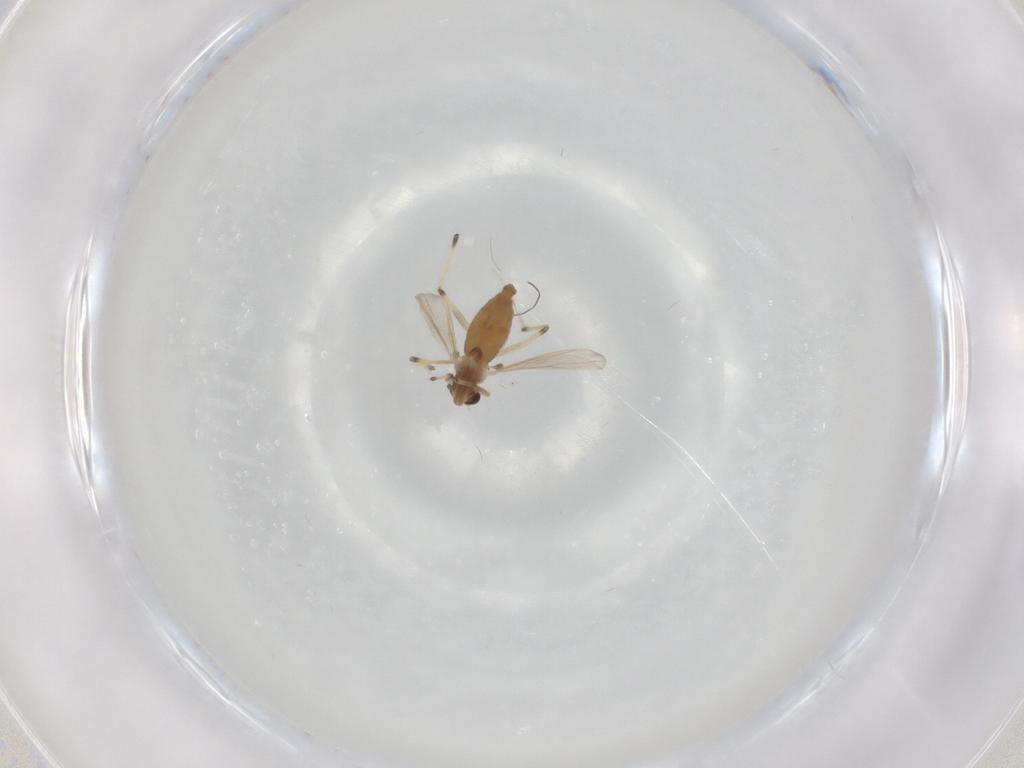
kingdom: Animalia
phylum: Arthropoda
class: Insecta
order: Diptera
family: Chironomidae
